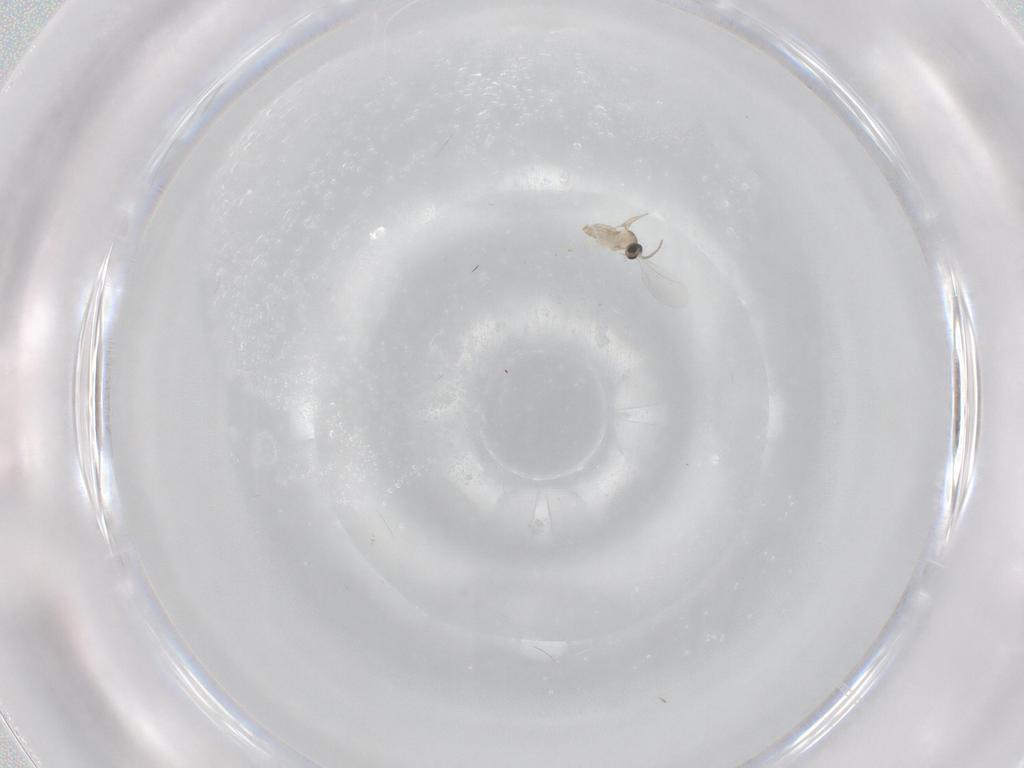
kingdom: Animalia
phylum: Arthropoda
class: Insecta
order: Diptera
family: Cecidomyiidae
